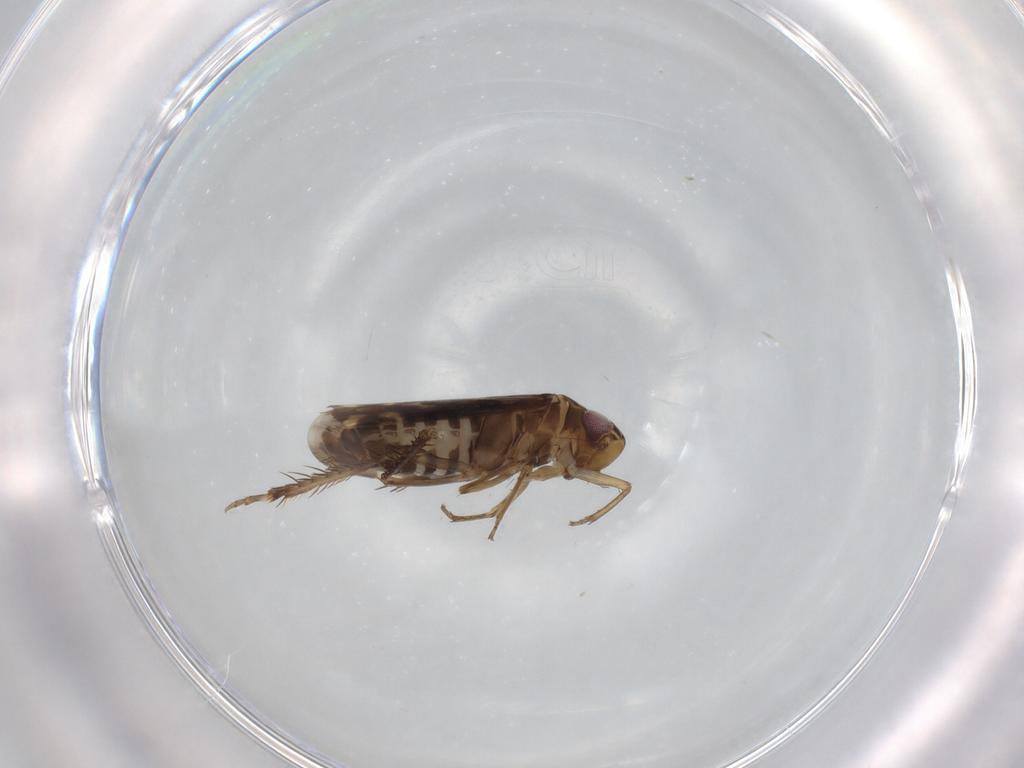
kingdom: Animalia
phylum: Arthropoda
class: Insecta
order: Hemiptera
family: Cicadellidae
